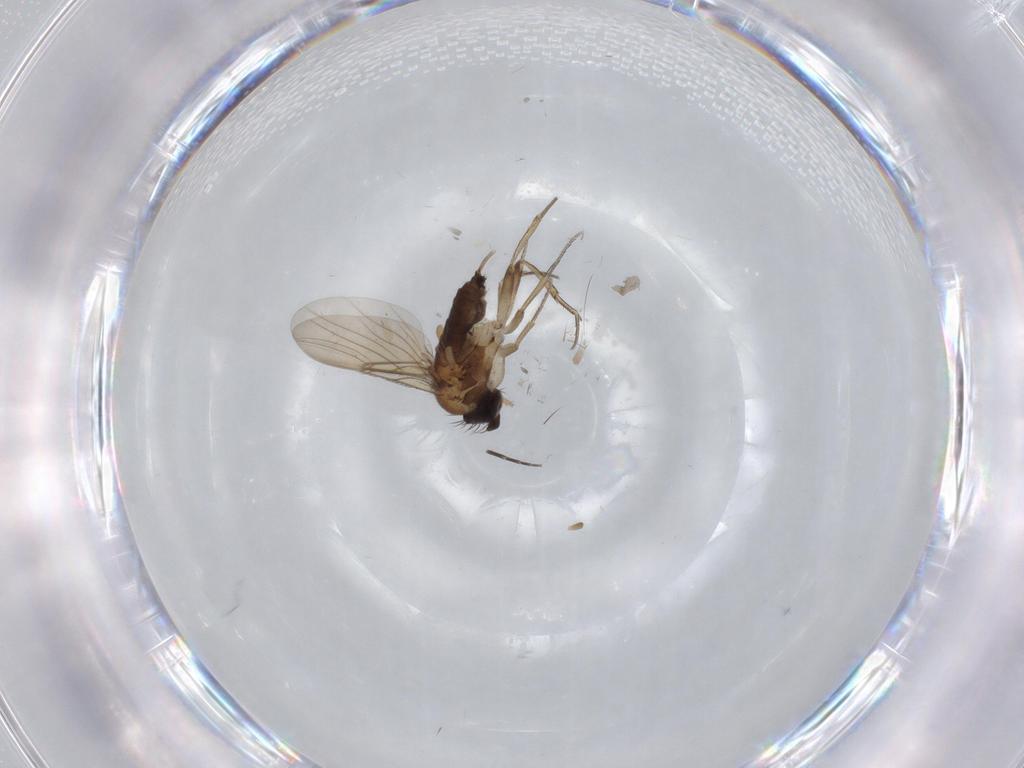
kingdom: Animalia
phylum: Arthropoda
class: Insecta
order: Diptera
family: Phoridae
